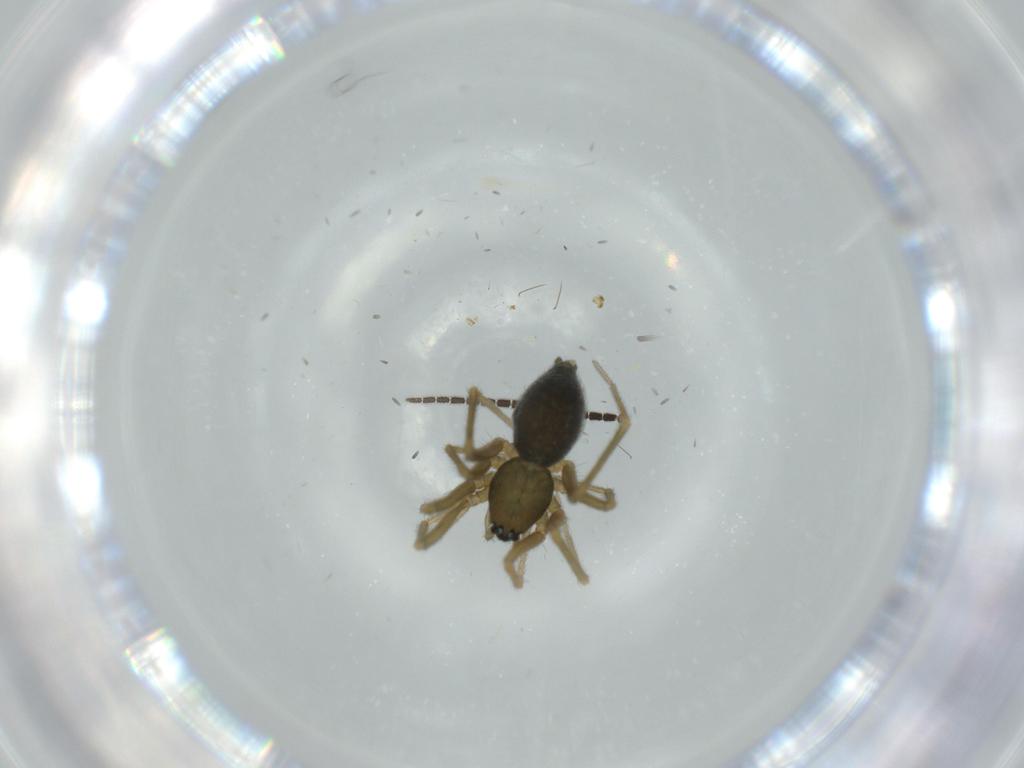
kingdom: Animalia
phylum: Arthropoda
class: Arachnida
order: Araneae
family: Linyphiidae
